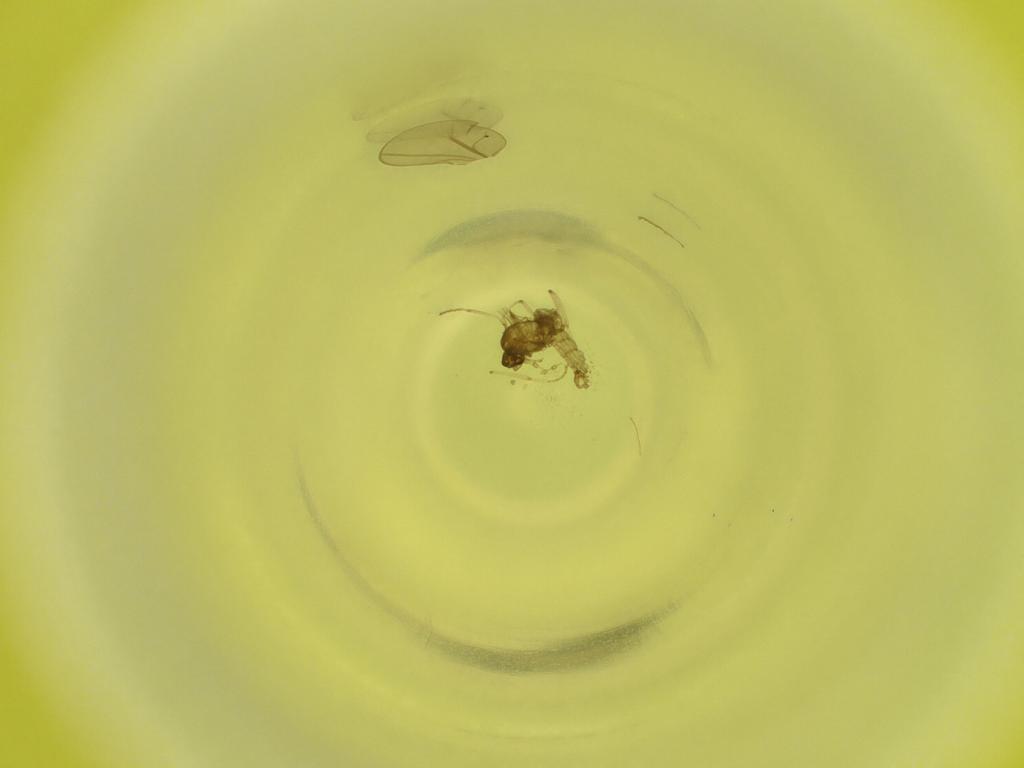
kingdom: Animalia
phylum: Arthropoda
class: Insecta
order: Diptera
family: Cecidomyiidae
